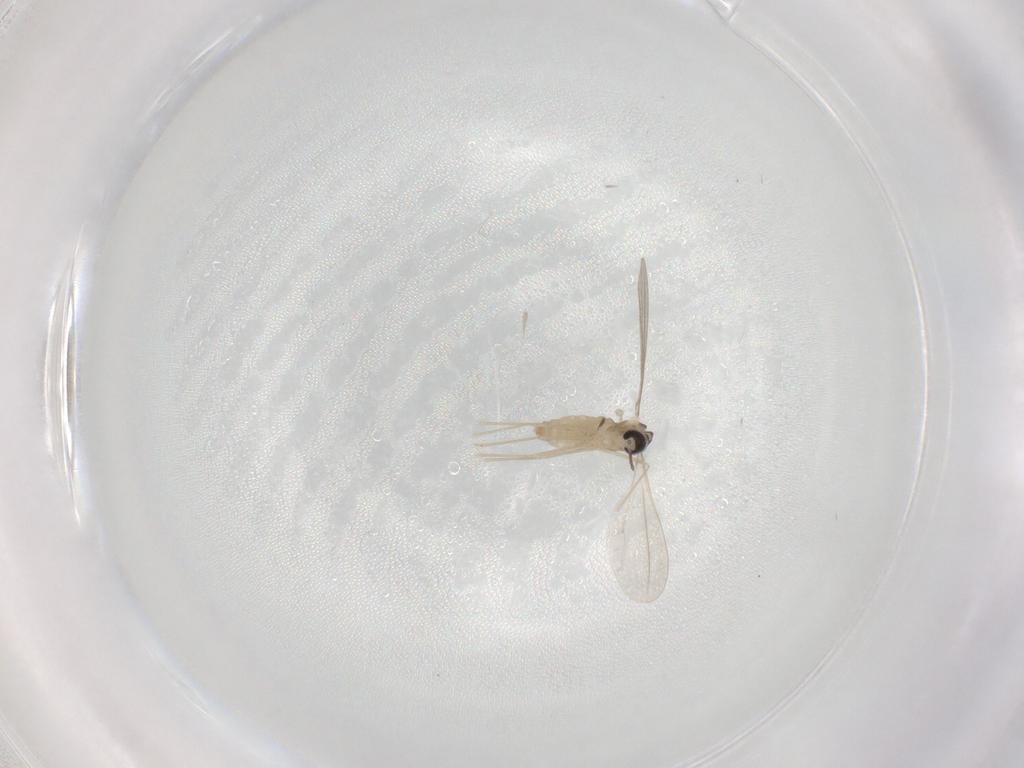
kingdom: Animalia
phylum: Arthropoda
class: Insecta
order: Diptera
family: Cecidomyiidae
